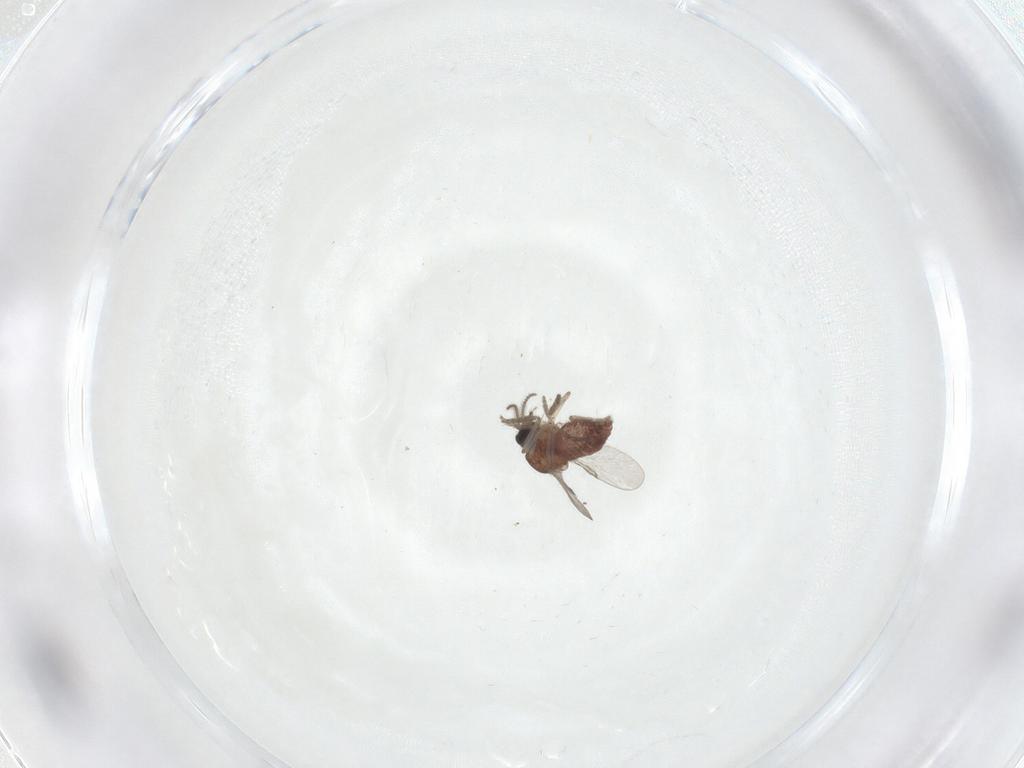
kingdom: Animalia
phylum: Arthropoda
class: Insecta
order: Diptera
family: Ceratopogonidae
